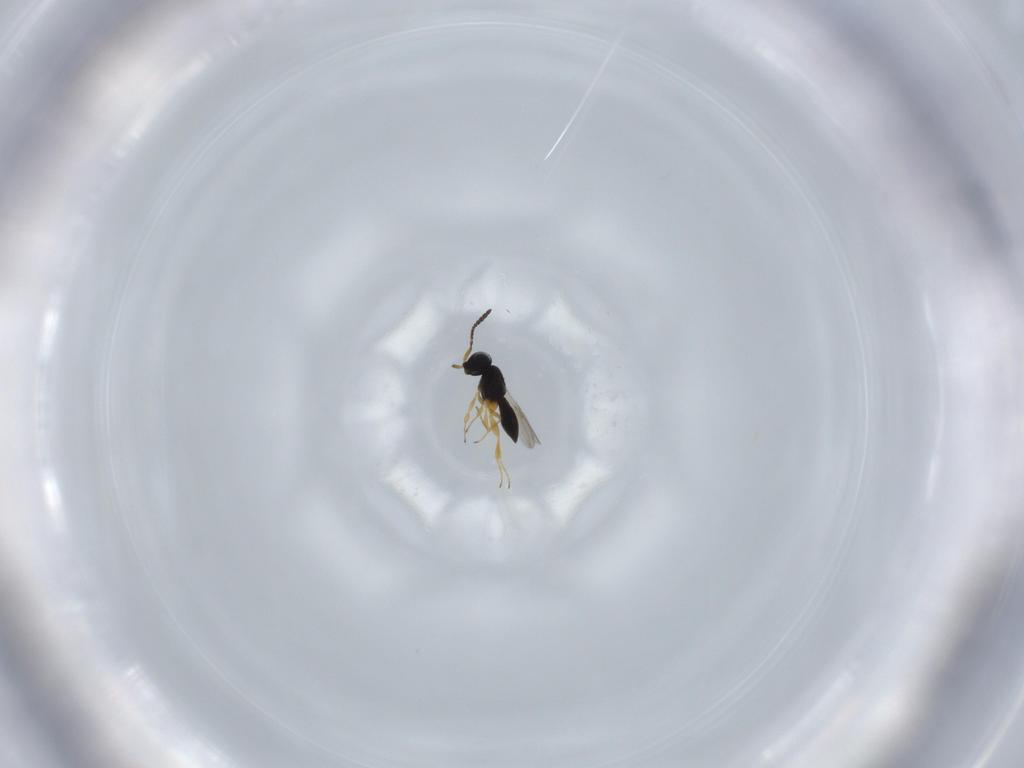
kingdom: Animalia
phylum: Arthropoda
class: Insecta
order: Hymenoptera
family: Scelionidae
